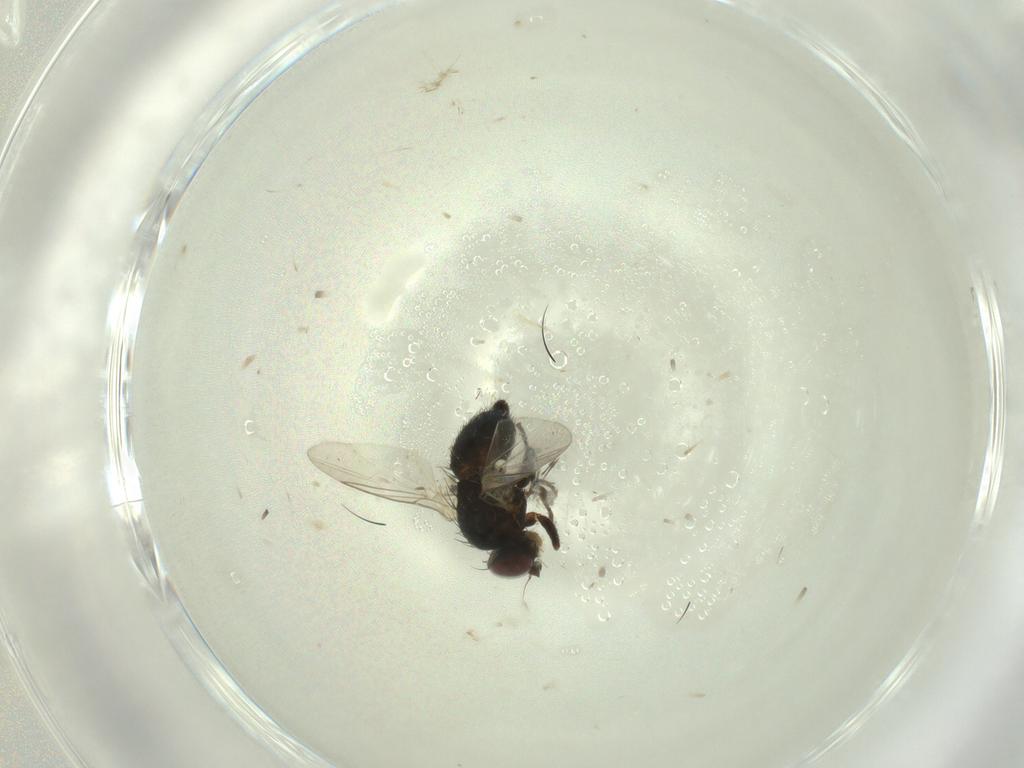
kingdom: Animalia
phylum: Arthropoda
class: Insecta
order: Diptera
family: Agromyzidae
